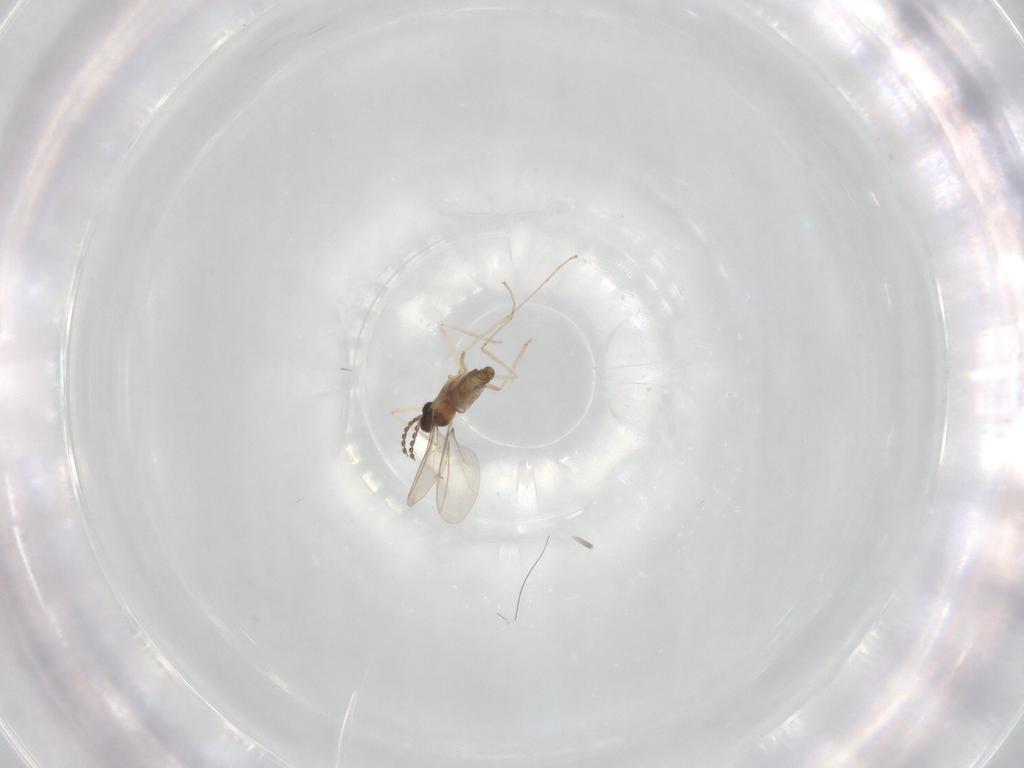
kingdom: Animalia
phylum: Arthropoda
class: Insecta
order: Diptera
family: Cecidomyiidae
